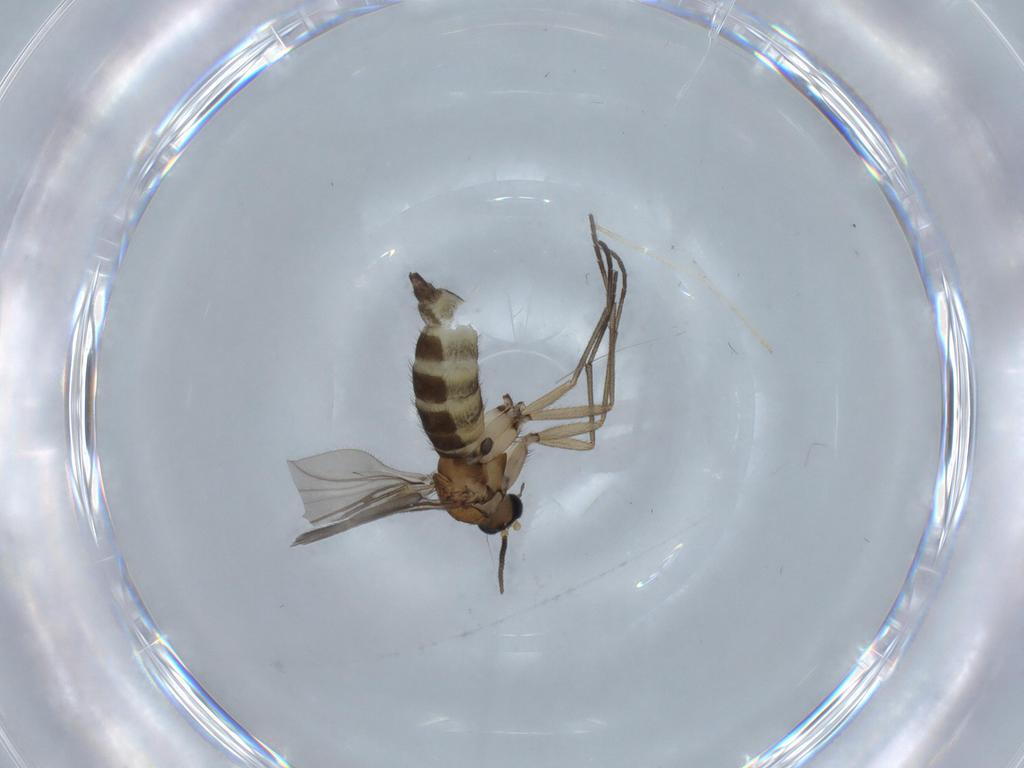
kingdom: Animalia
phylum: Arthropoda
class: Insecta
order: Diptera
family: Sciaridae
